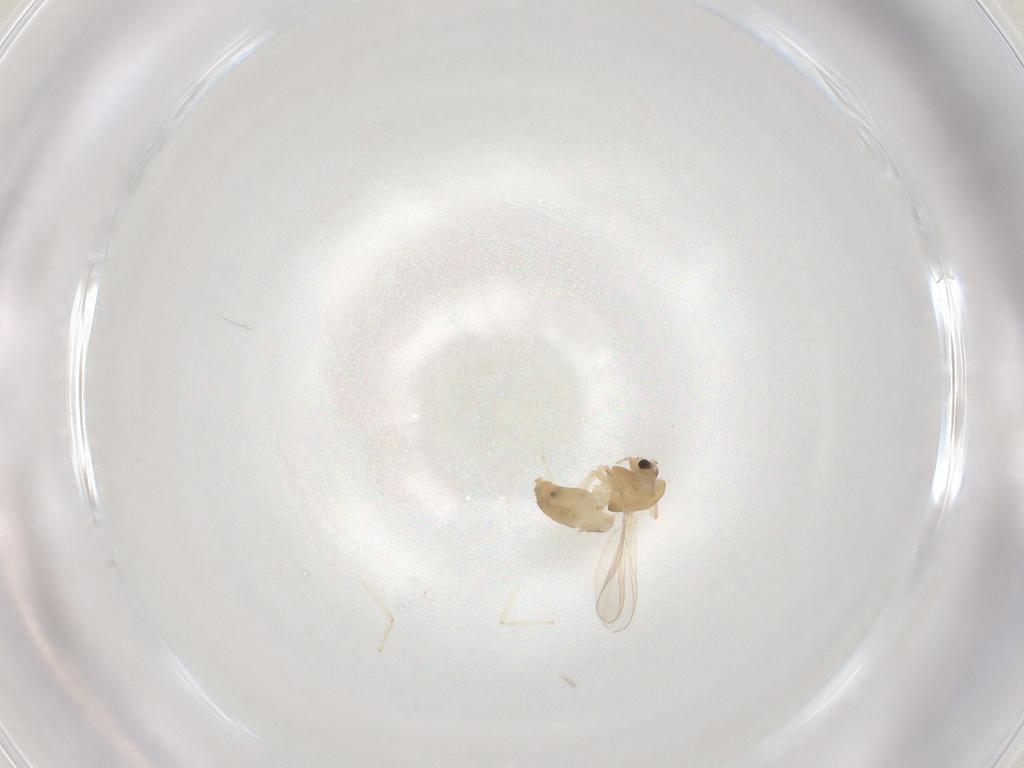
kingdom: Animalia
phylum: Arthropoda
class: Insecta
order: Diptera
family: Chironomidae
